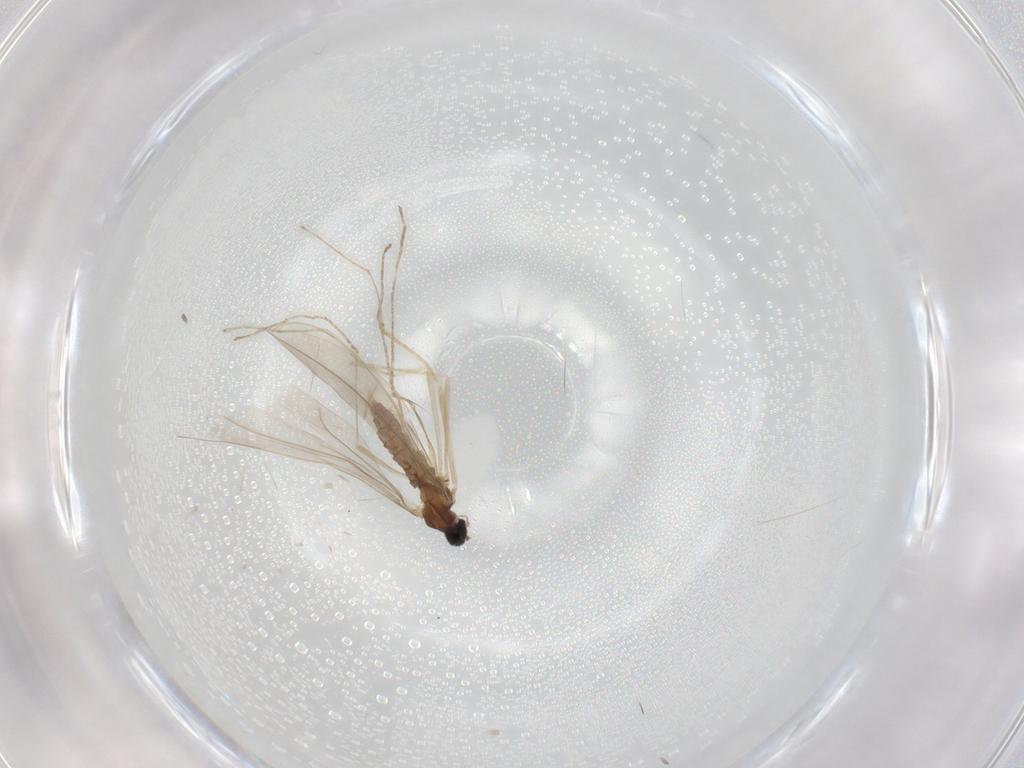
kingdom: Animalia
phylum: Arthropoda
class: Insecta
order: Diptera
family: Cecidomyiidae
